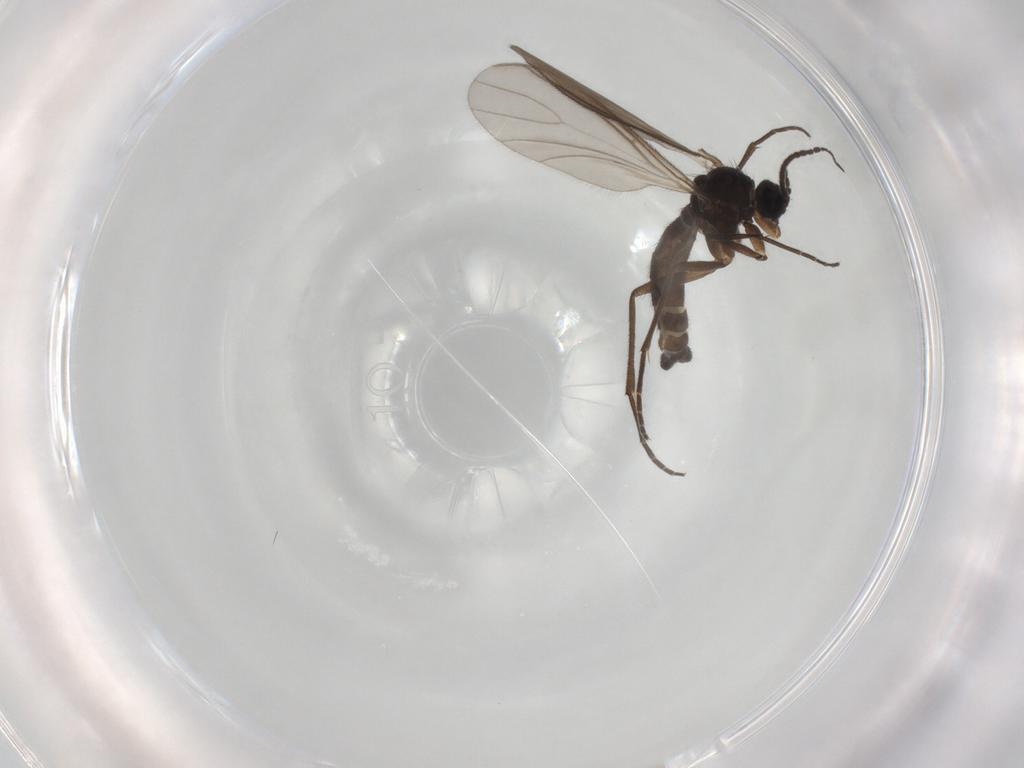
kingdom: Animalia
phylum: Arthropoda
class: Insecta
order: Diptera
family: Sciaridae
